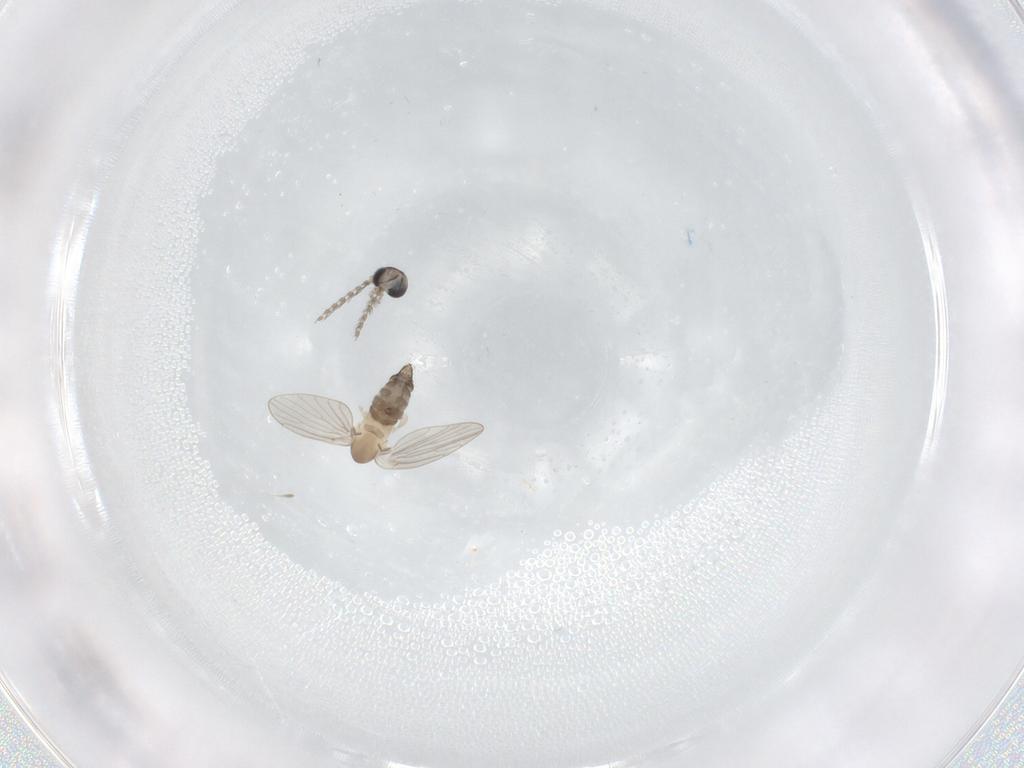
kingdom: Animalia
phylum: Arthropoda
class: Insecta
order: Diptera
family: Psychodidae
